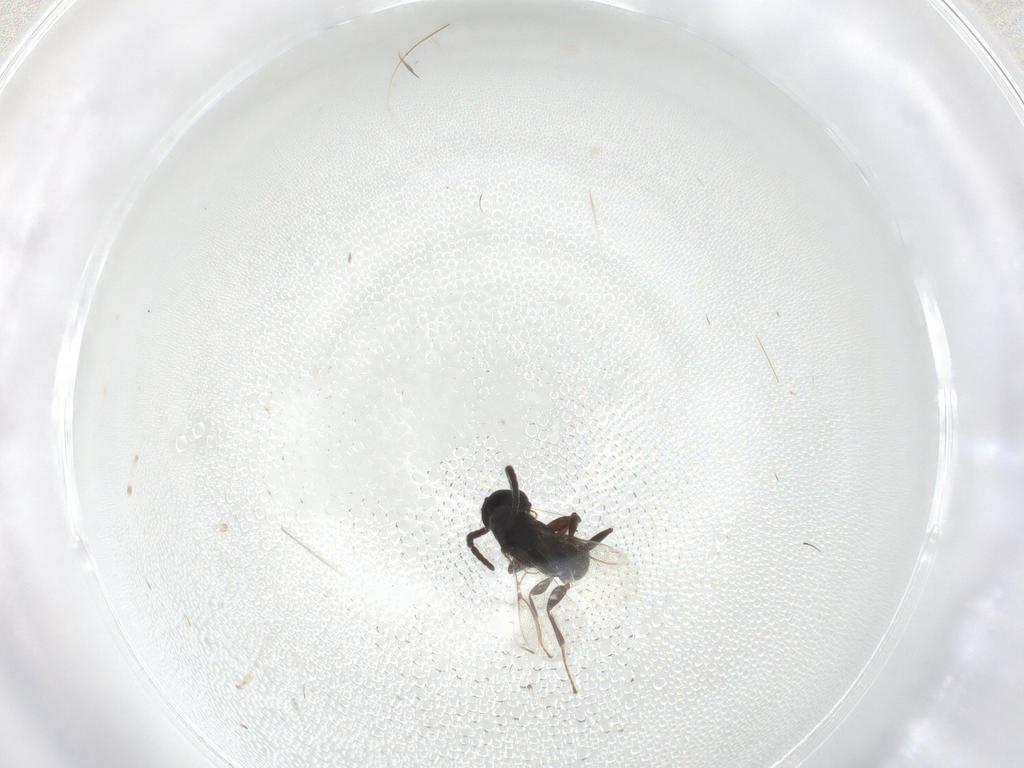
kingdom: Animalia
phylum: Arthropoda
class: Insecta
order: Hymenoptera
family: Bethylidae
